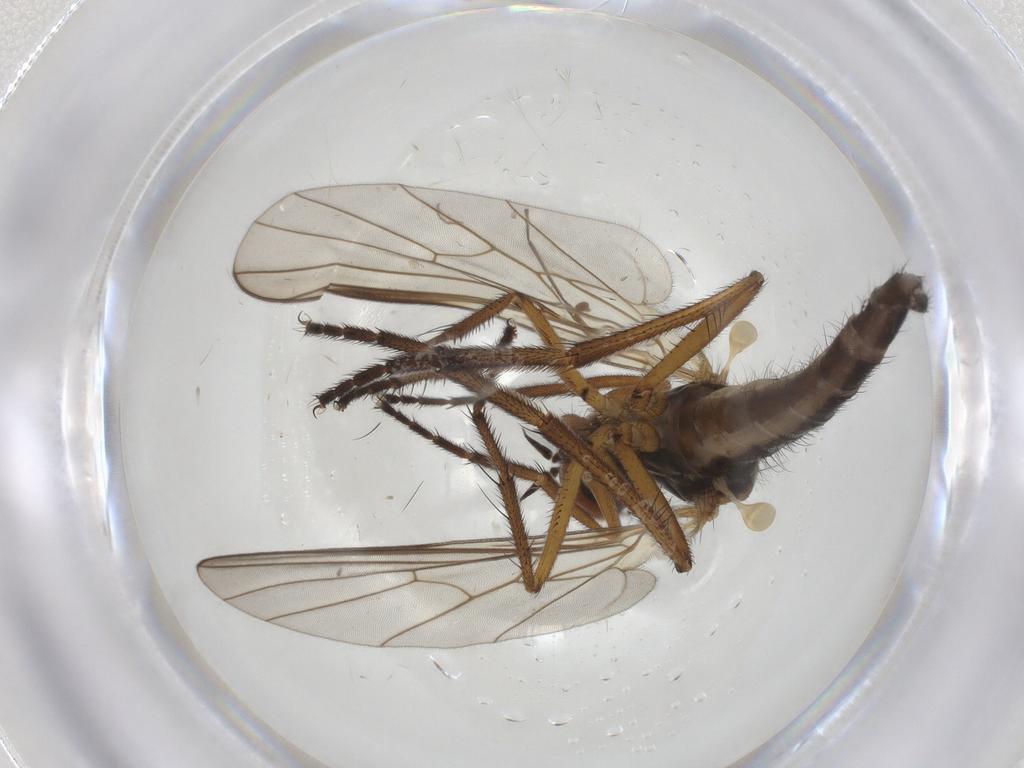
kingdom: Animalia
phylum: Arthropoda
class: Insecta
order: Diptera
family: Empididae
